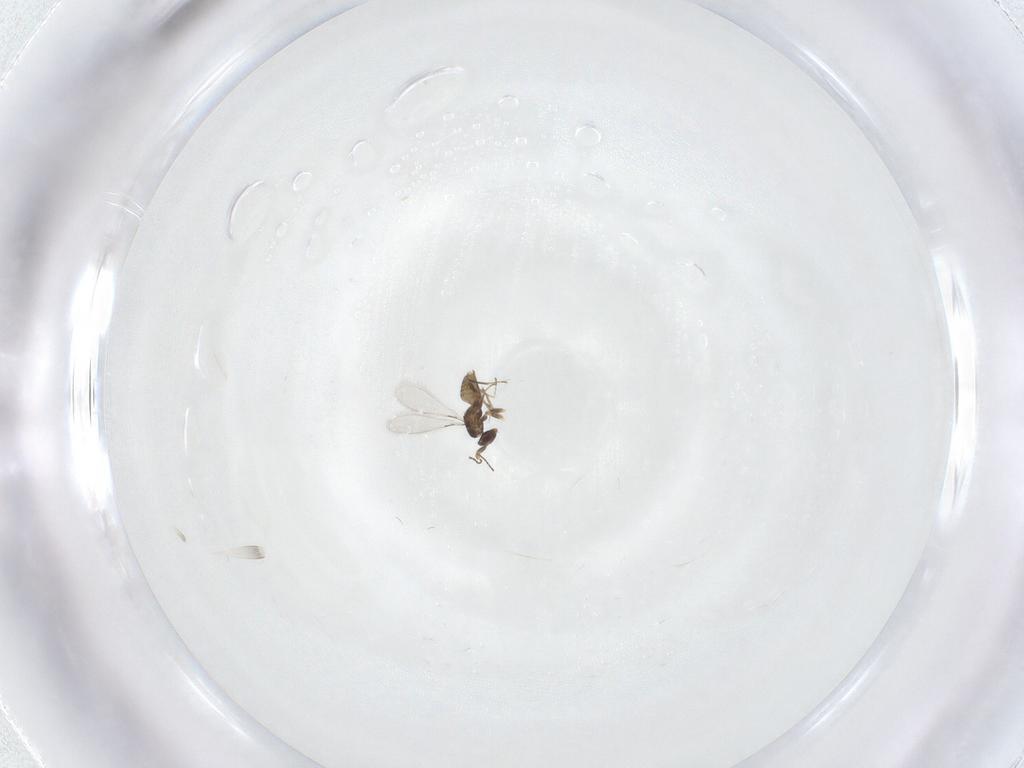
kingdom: Animalia
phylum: Arthropoda
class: Insecta
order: Hymenoptera
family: Mymaridae
